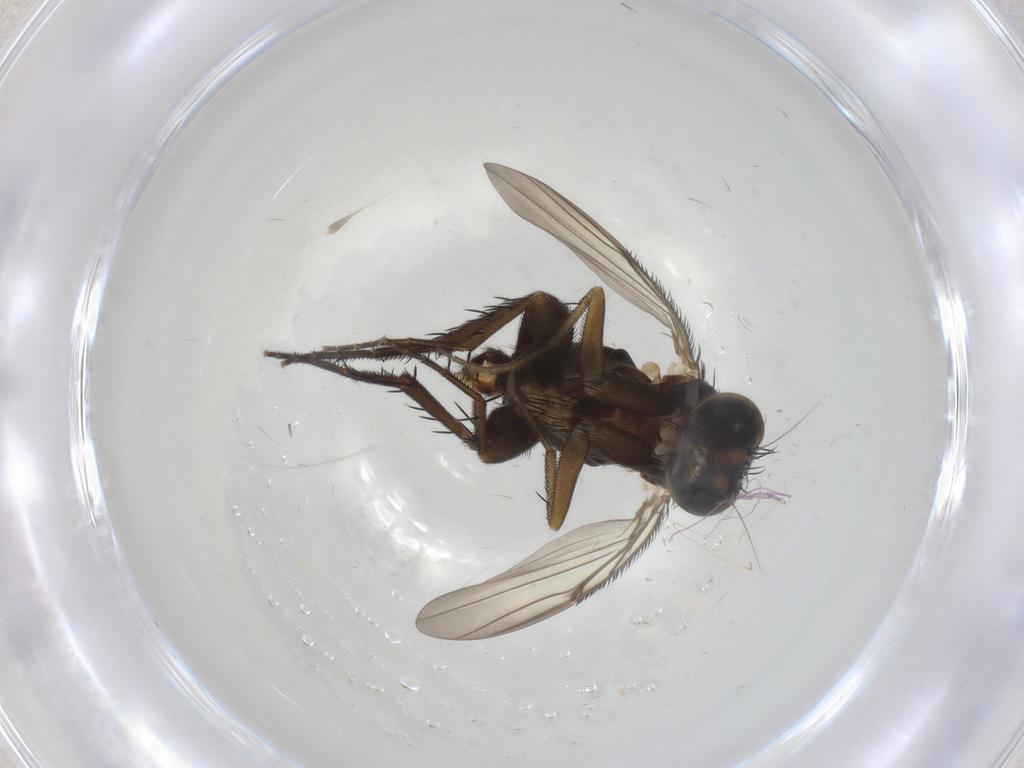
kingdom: Animalia
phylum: Arthropoda
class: Insecta
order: Diptera
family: Phoridae
